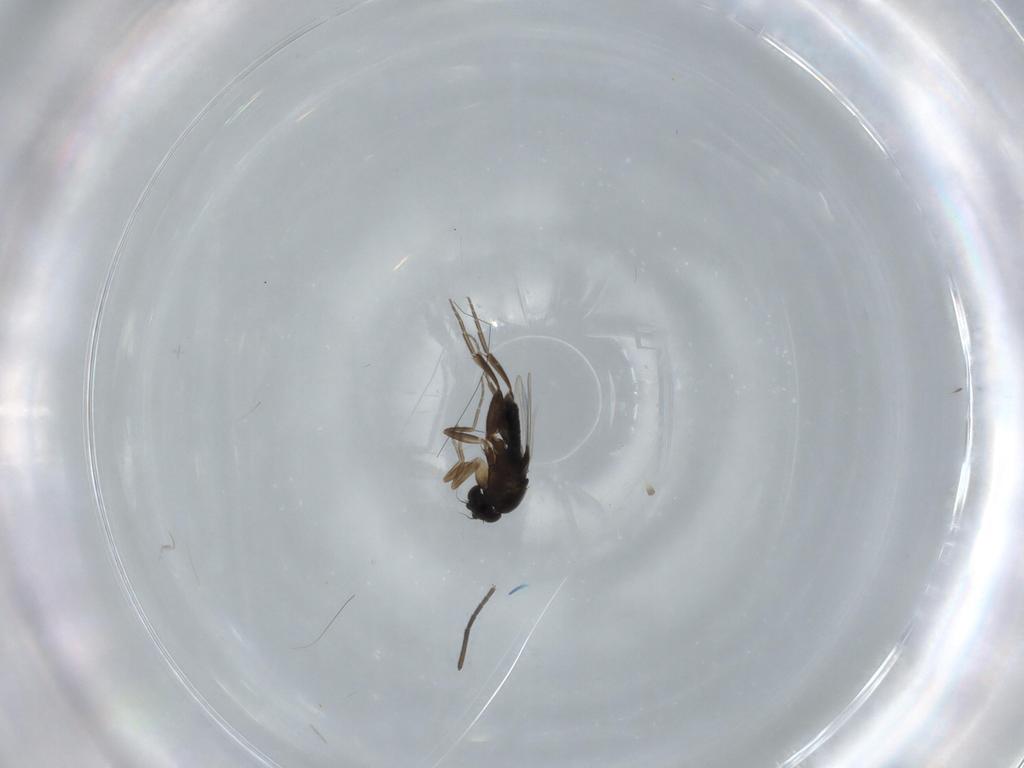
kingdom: Animalia
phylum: Arthropoda
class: Insecta
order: Diptera
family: Phoridae
